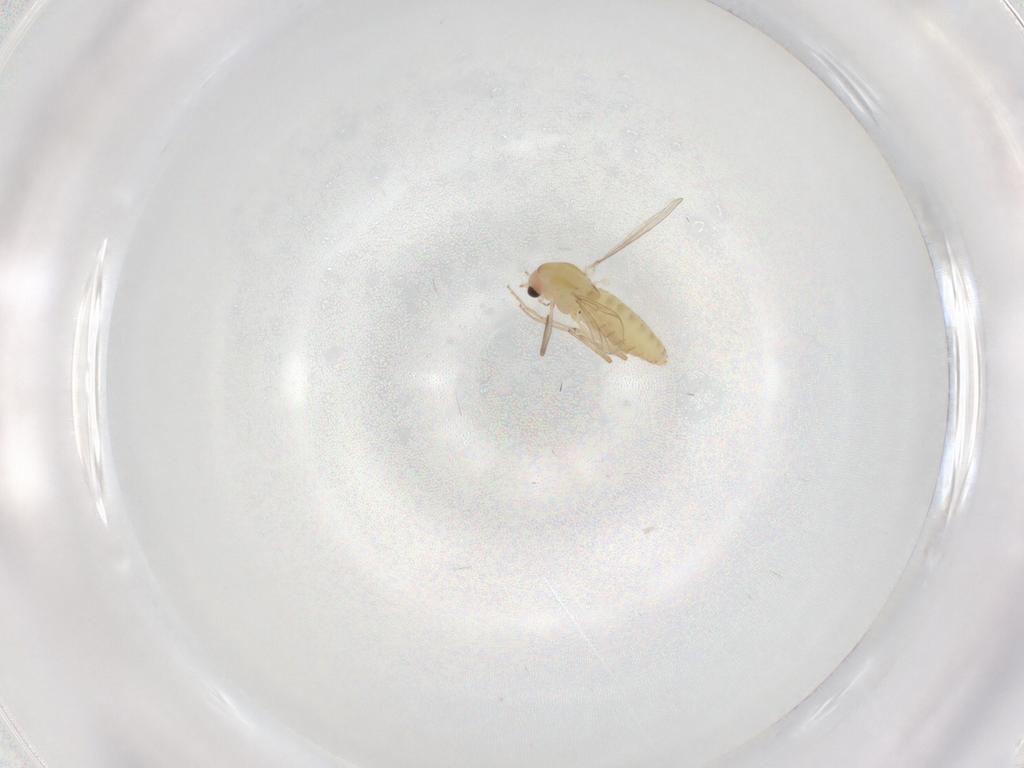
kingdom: Animalia
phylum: Arthropoda
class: Insecta
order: Diptera
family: Chironomidae
